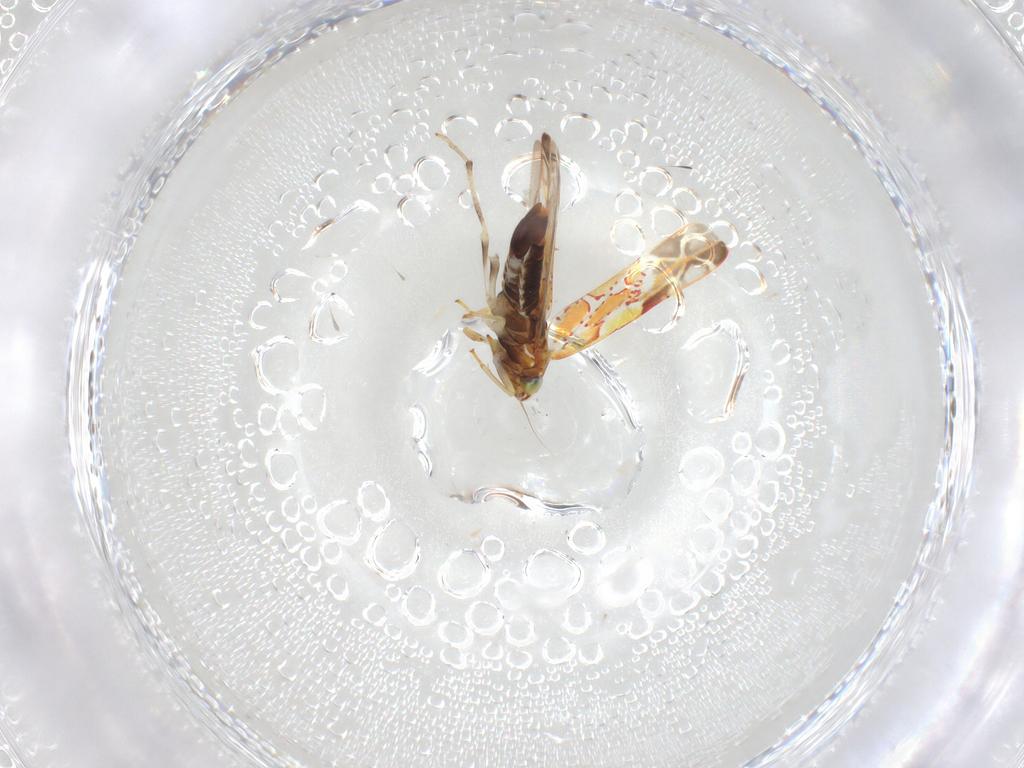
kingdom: Animalia
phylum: Arthropoda
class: Insecta
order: Hemiptera
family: Cicadellidae
